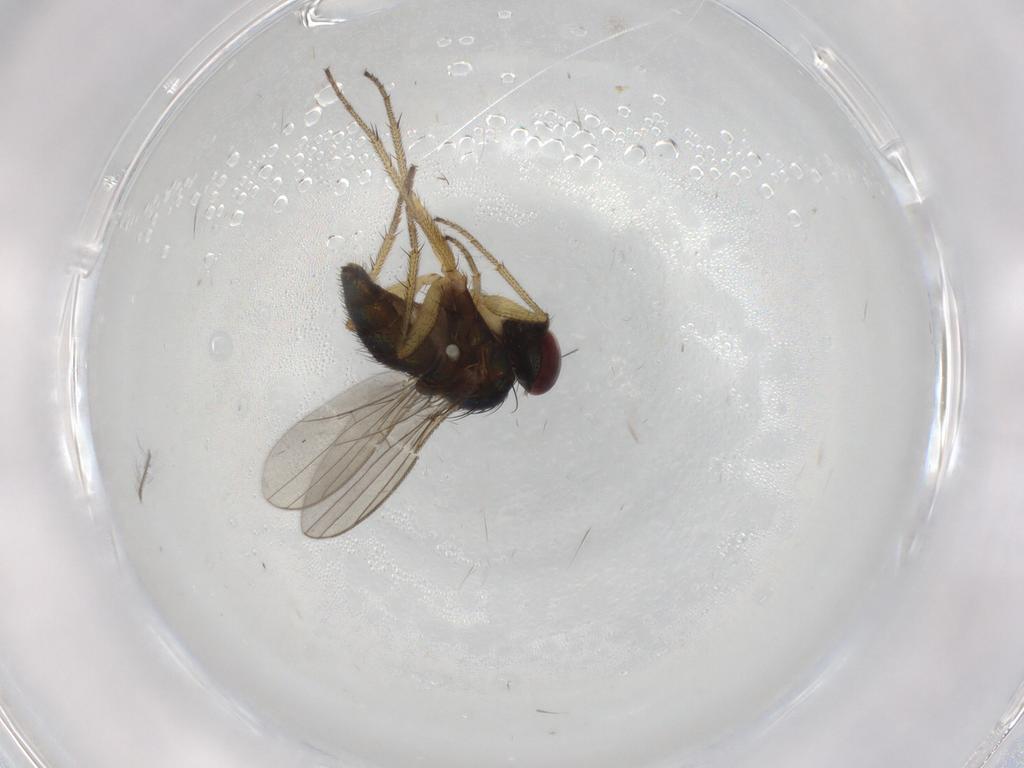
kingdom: Animalia
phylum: Arthropoda
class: Insecta
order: Diptera
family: Chironomidae
